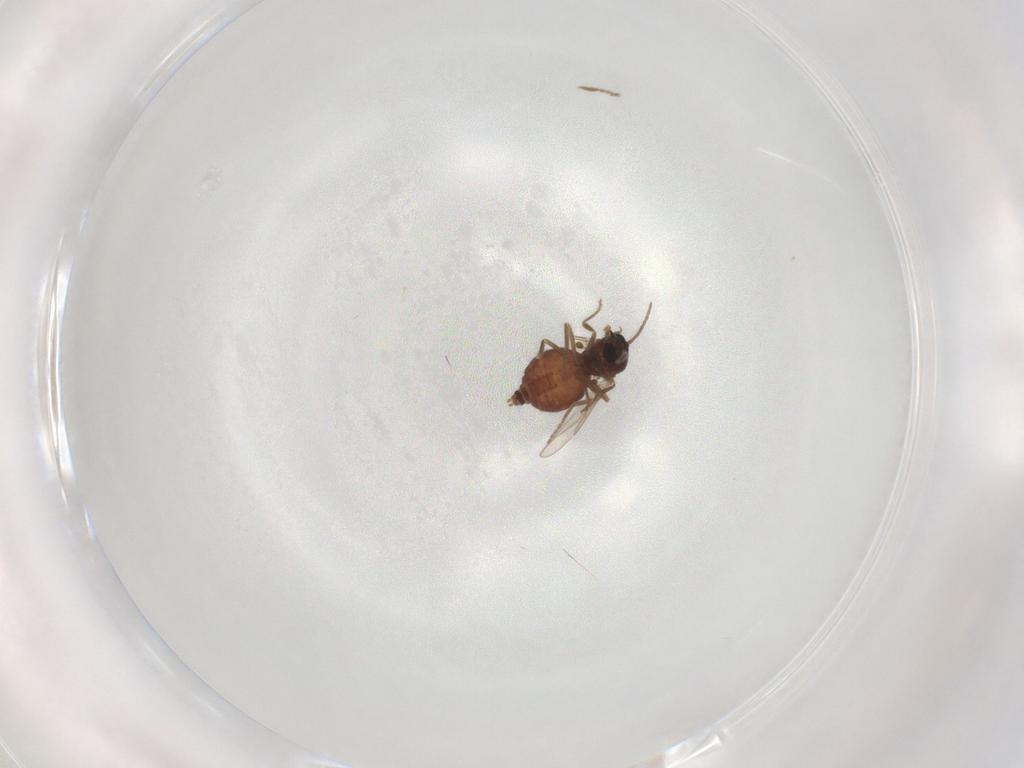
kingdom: Animalia
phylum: Arthropoda
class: Insecta
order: Diptera
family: Ceratopogonidae
